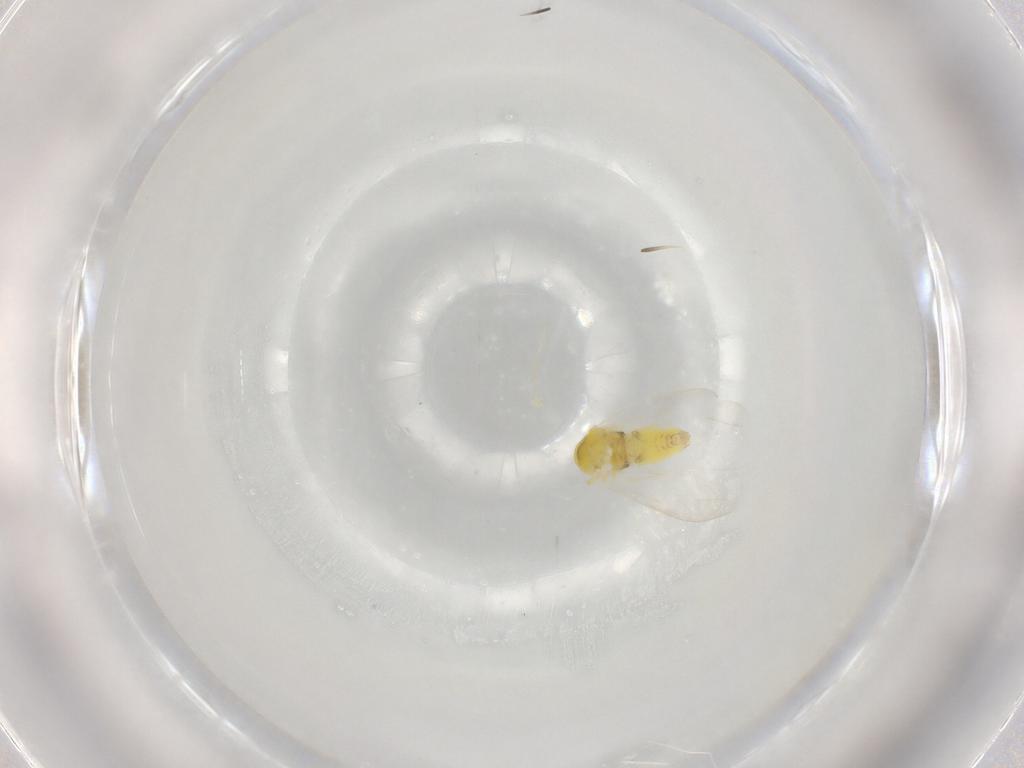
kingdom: Animalia
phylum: Arthropoda
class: Insecta
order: Hemiptera
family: Aleyrodidae
